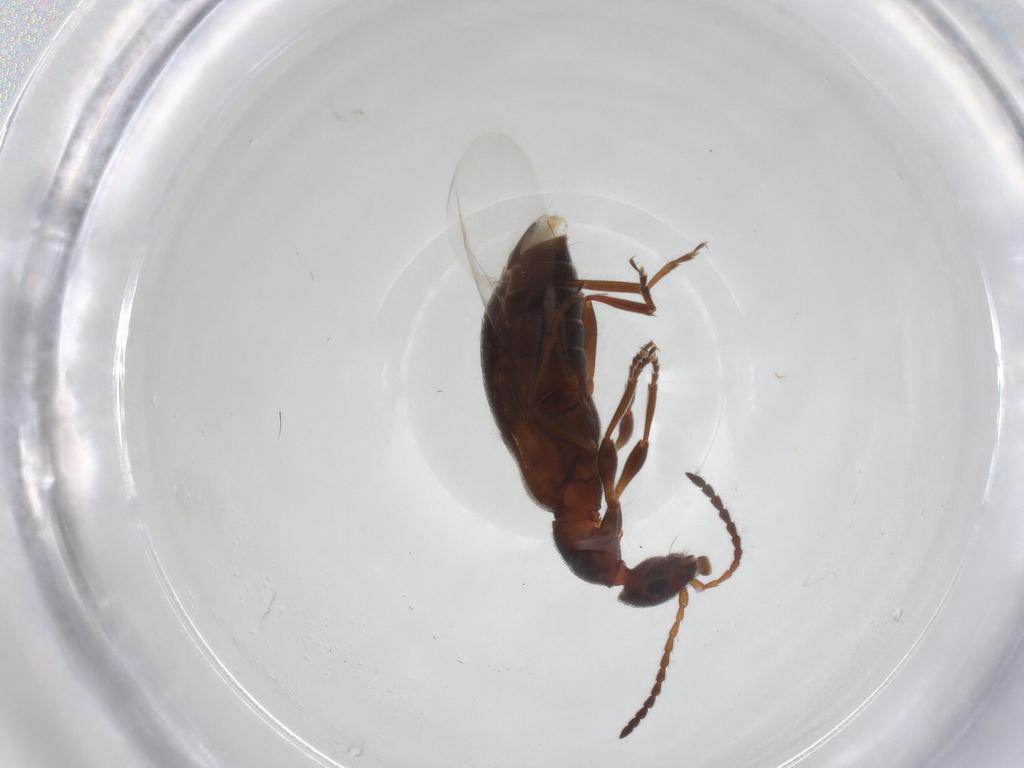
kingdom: Animalia
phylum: Arthropoda
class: Insecta
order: Coleoptera
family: Anthicidae
